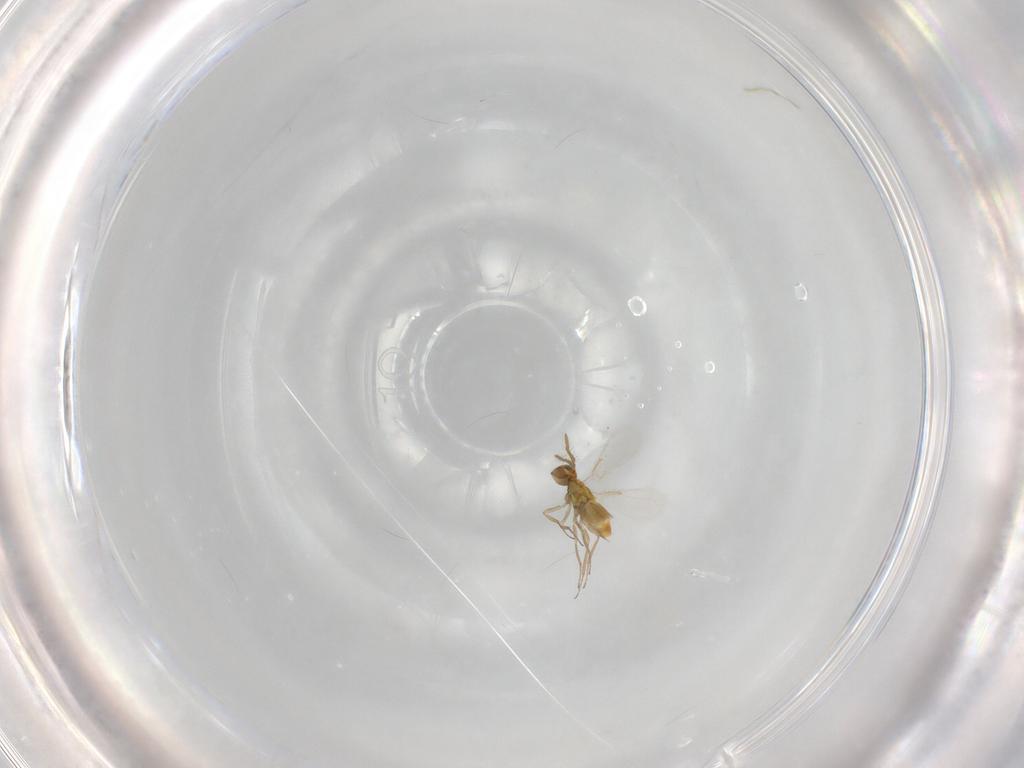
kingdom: Animalia
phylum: Arthropoda
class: Insecta
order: Hymenoptera
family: Aphelinidae
